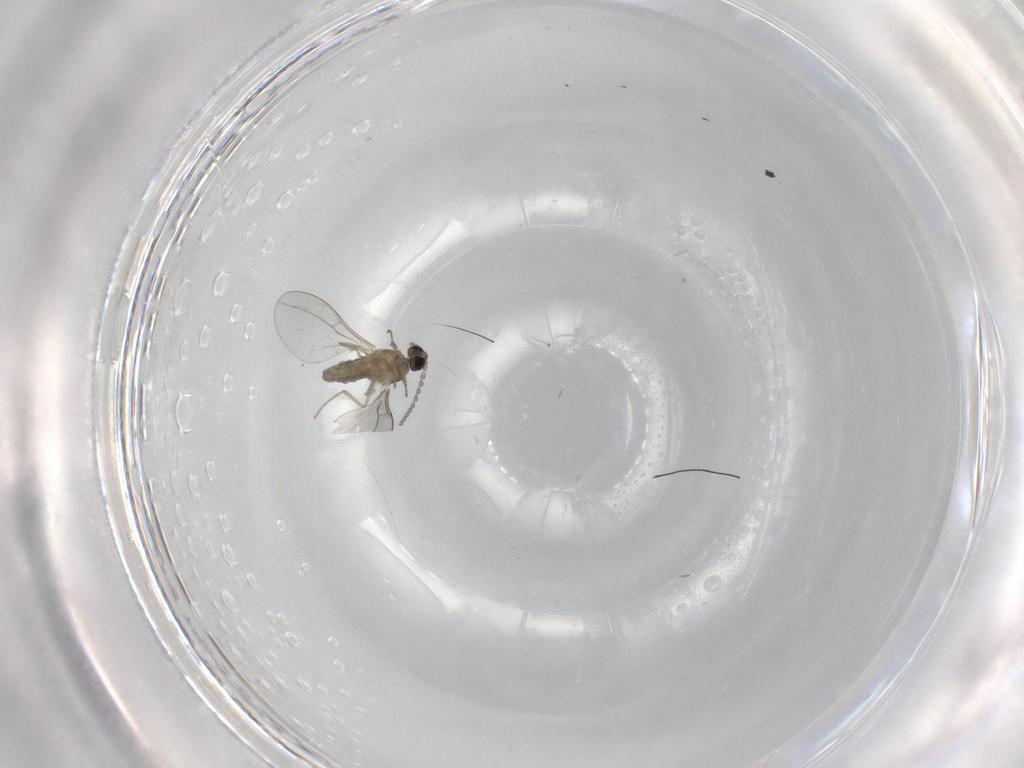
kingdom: Animalia
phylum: Arthropoda
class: Insecta
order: Diptera
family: Cecidomyiidae
